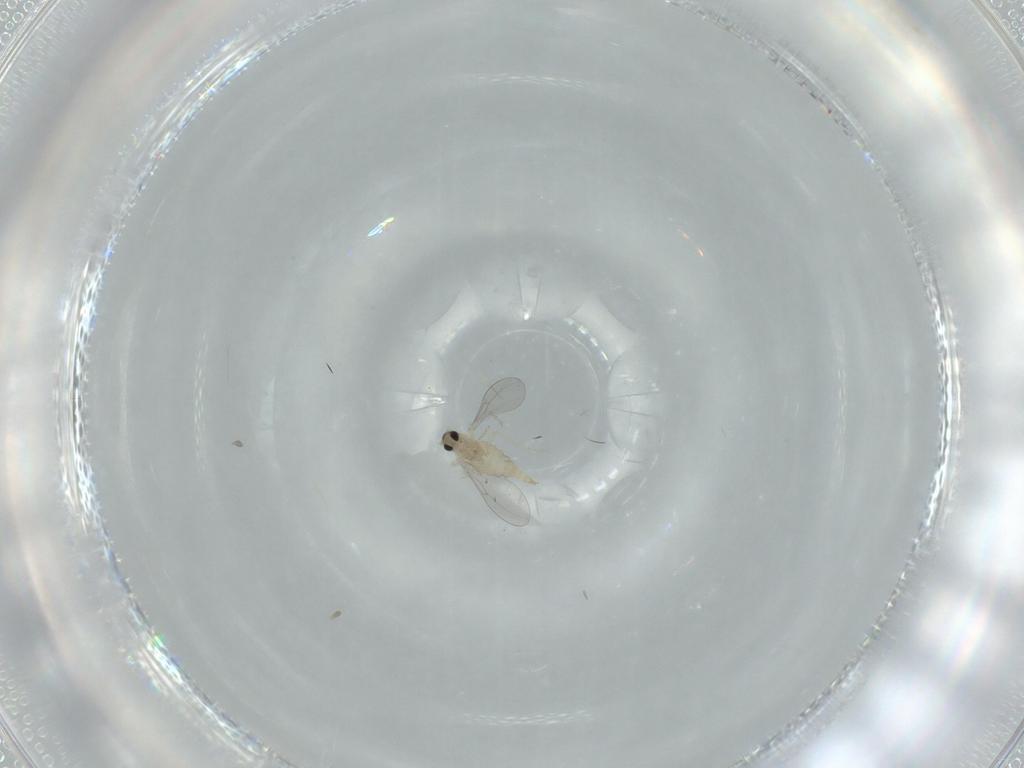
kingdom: Animalia
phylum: Arthropoda
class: Insecta
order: Diptera
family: Cecidomyiidae
